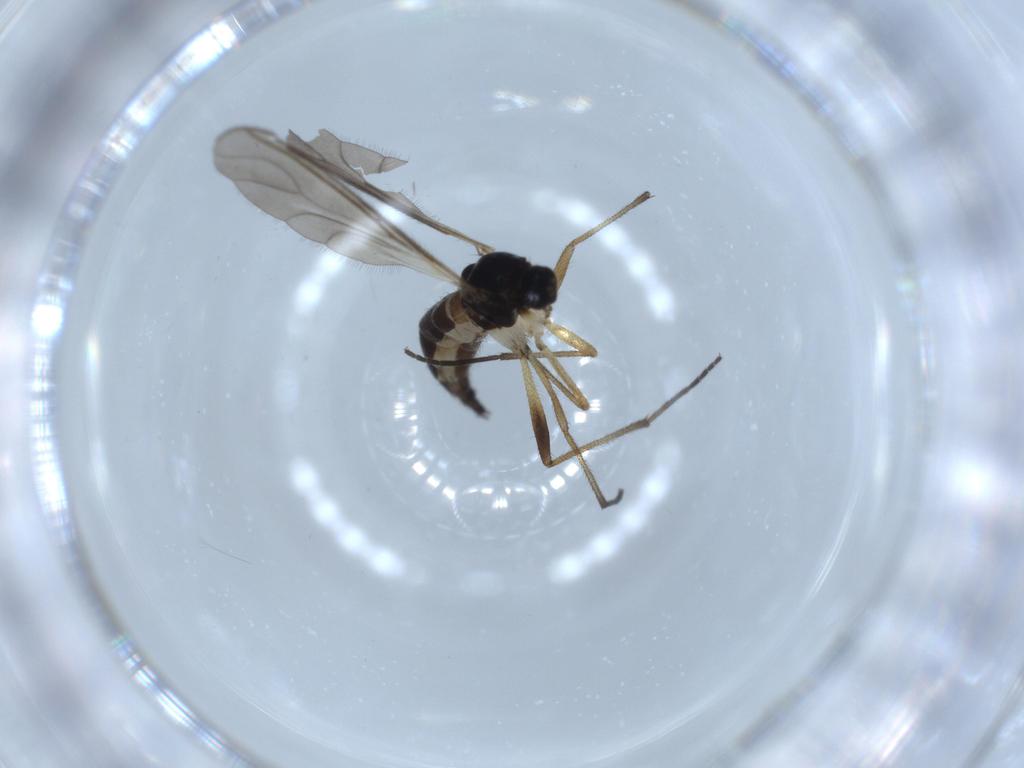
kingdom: Animalia
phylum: Arthropoda
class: Insecta
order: Diptera
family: Sciaridae
